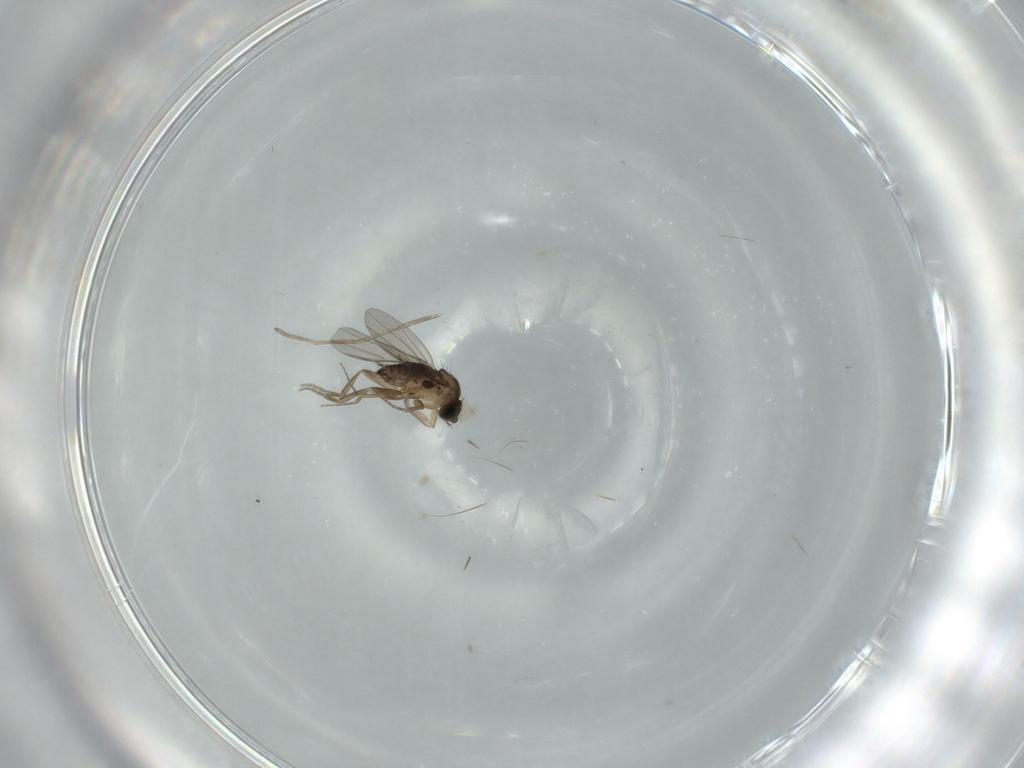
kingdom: Animalia
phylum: Arthropoda
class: Insecta
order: Diptera
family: Phoridae
